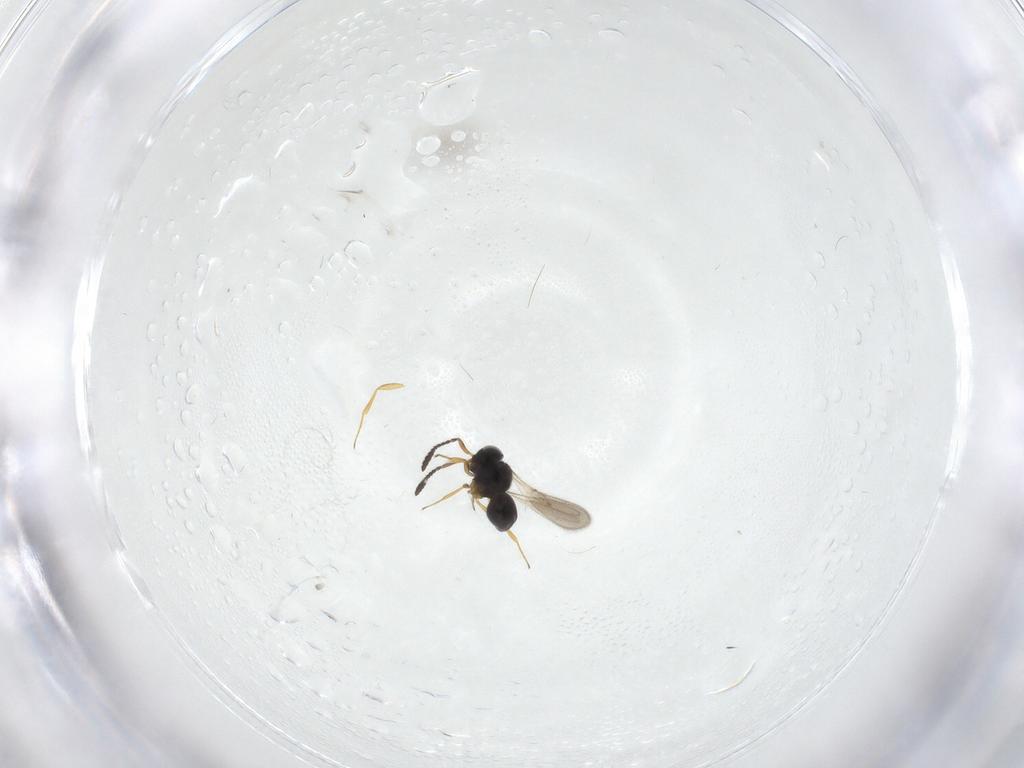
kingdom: Animalia
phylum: Arthropoda
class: Insecta
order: Hymenoptera
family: Scelionidae
